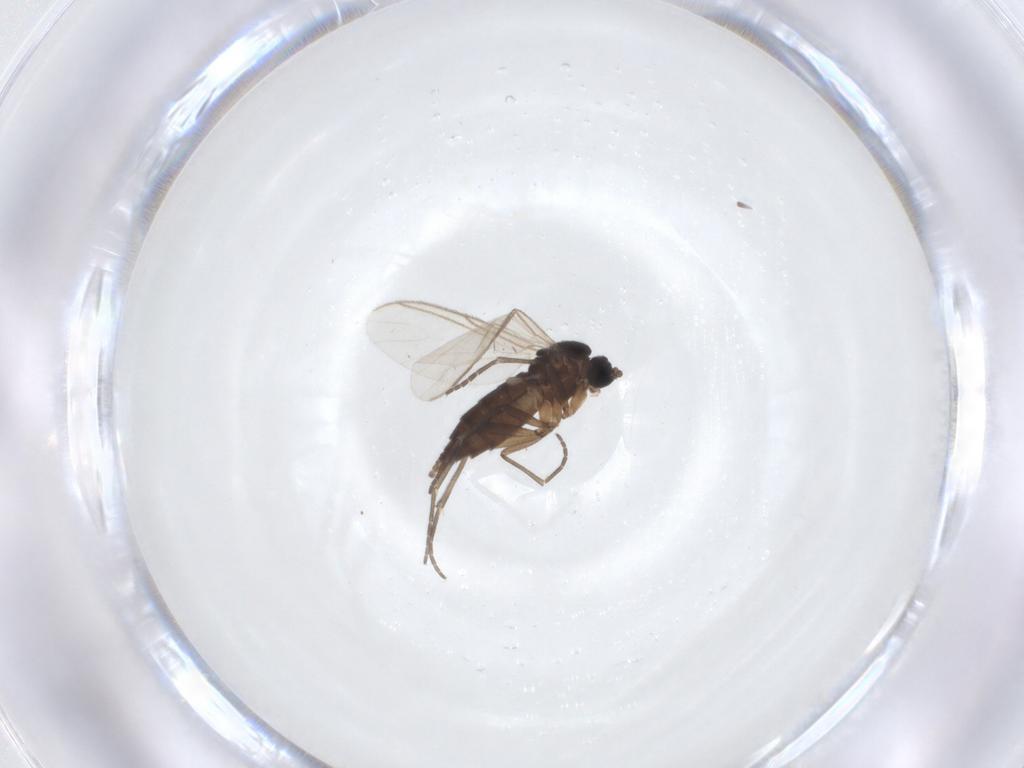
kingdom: Animalia
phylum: Arthropoda
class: Insecta
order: Diptera
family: Sciaridae
